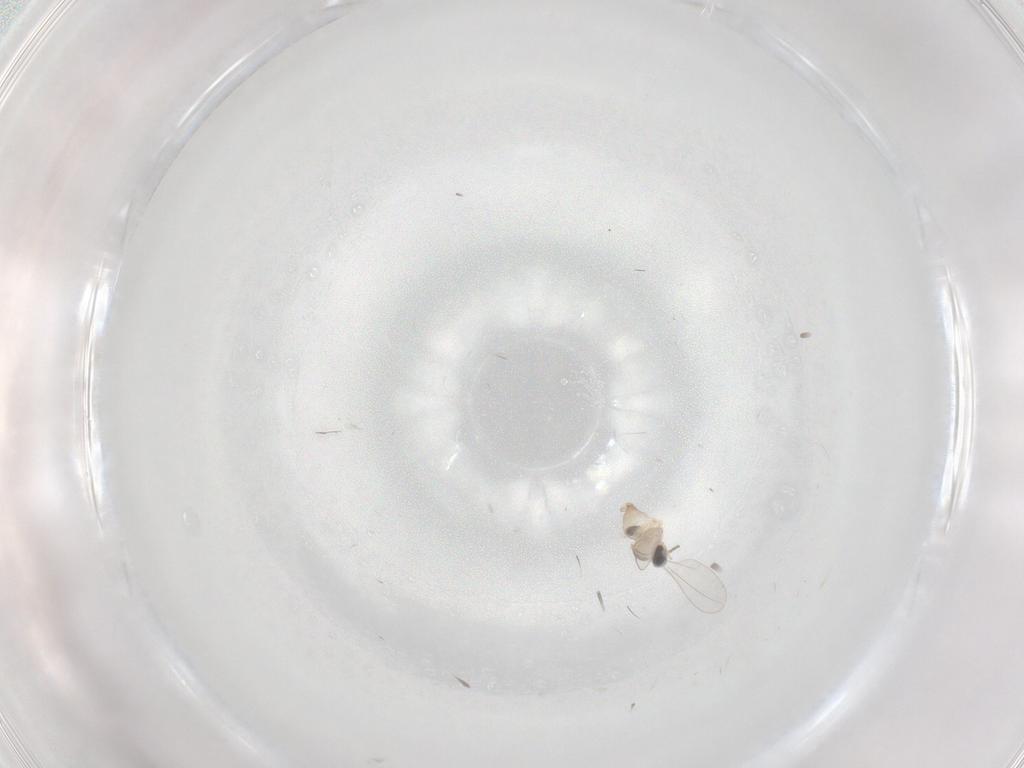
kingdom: Animalia
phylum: Arthropoda
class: Insecta
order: Diptera
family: Cecidomyiidae
